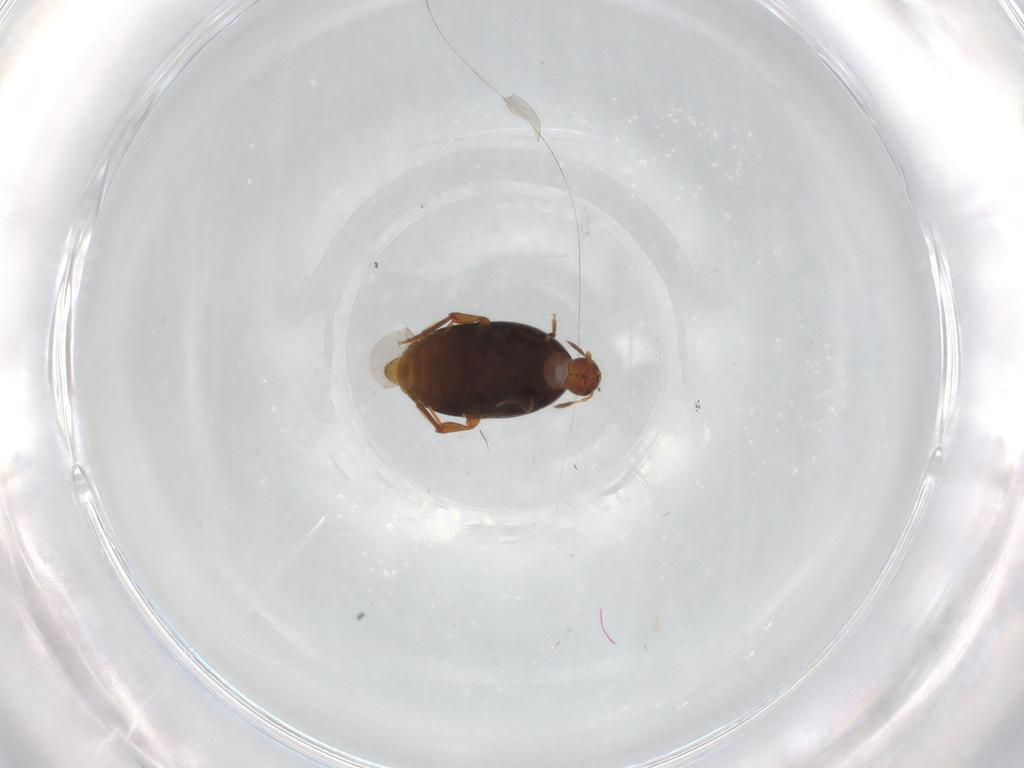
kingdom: Animalia
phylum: Arthropoda
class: Insecta
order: Coleoptera
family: Melandryidae
